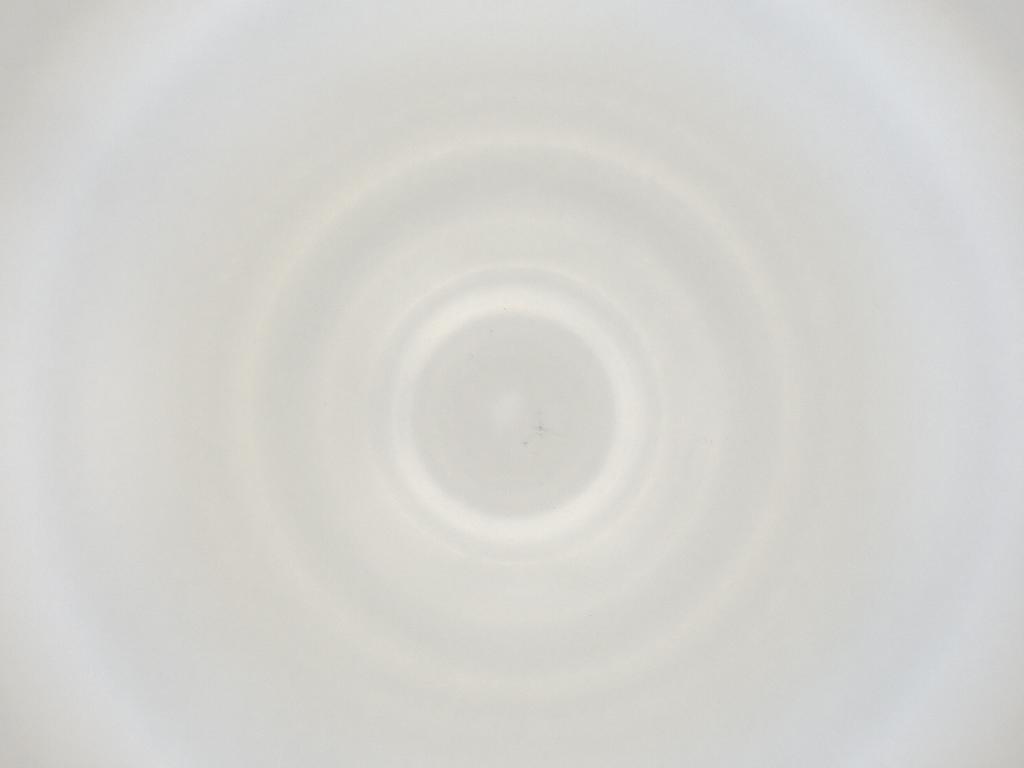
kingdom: Animalia
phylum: Arthropoda
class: Insecta
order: Diptera
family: Cecidomyiidae
